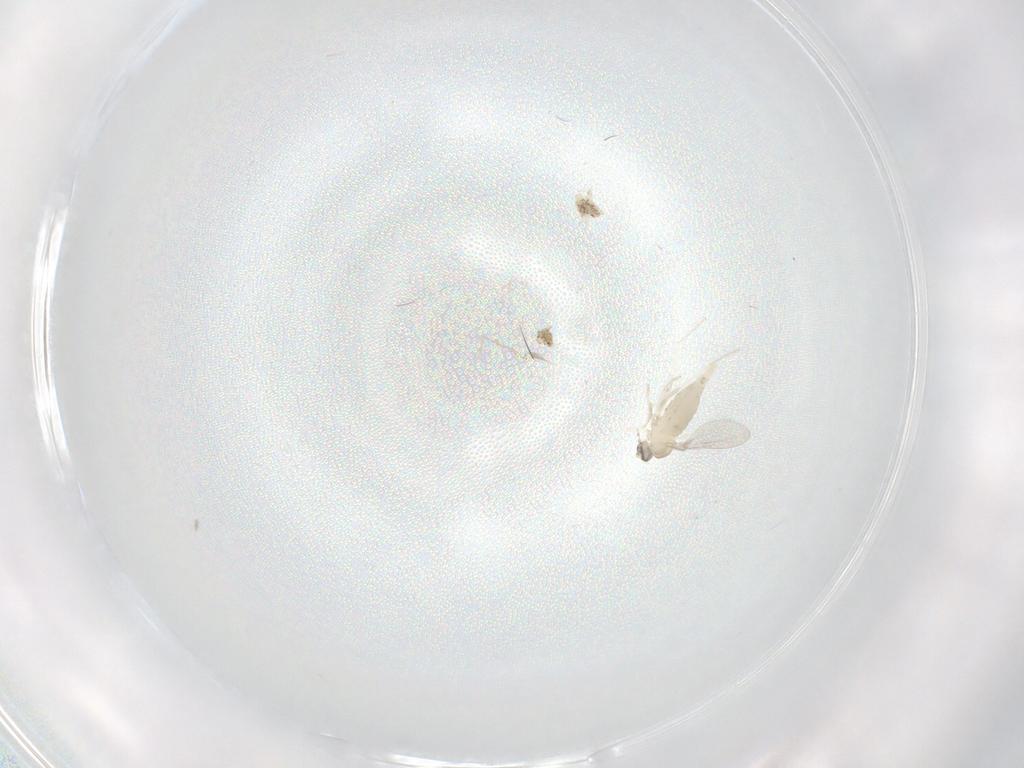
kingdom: Animalia
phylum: Arthropoda
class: Insecta
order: Diptera
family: Cecidomyiidae
